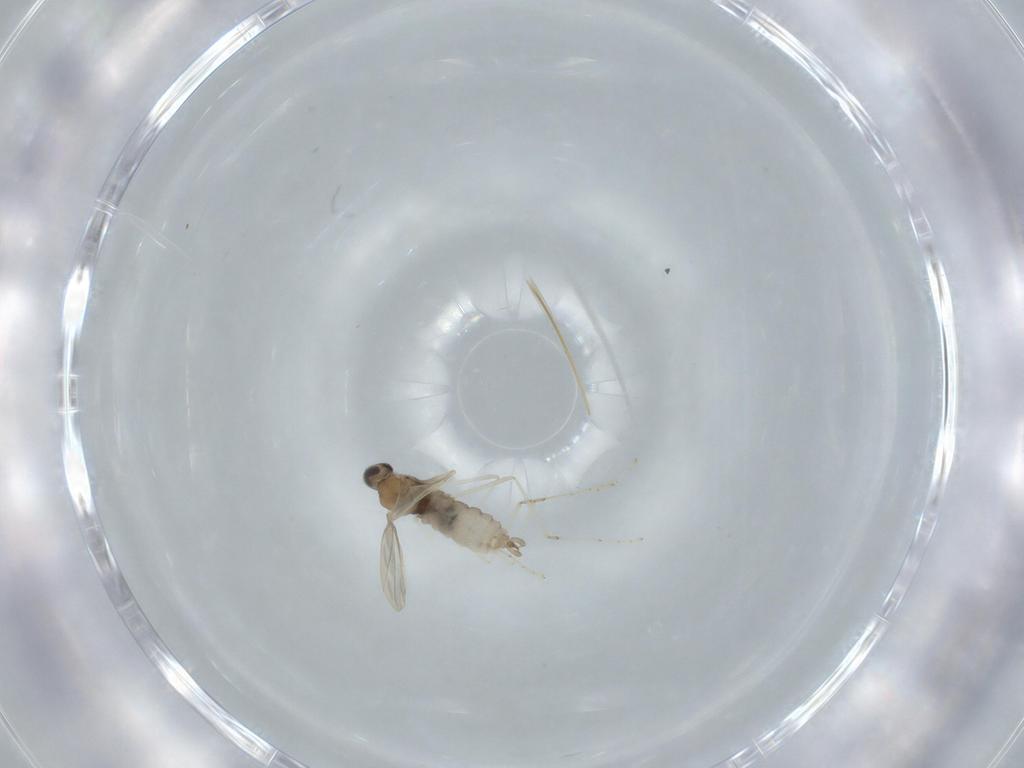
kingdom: Animalia
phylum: Arthropoda
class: Insecta
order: Diptera
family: Cecidomyiidae
